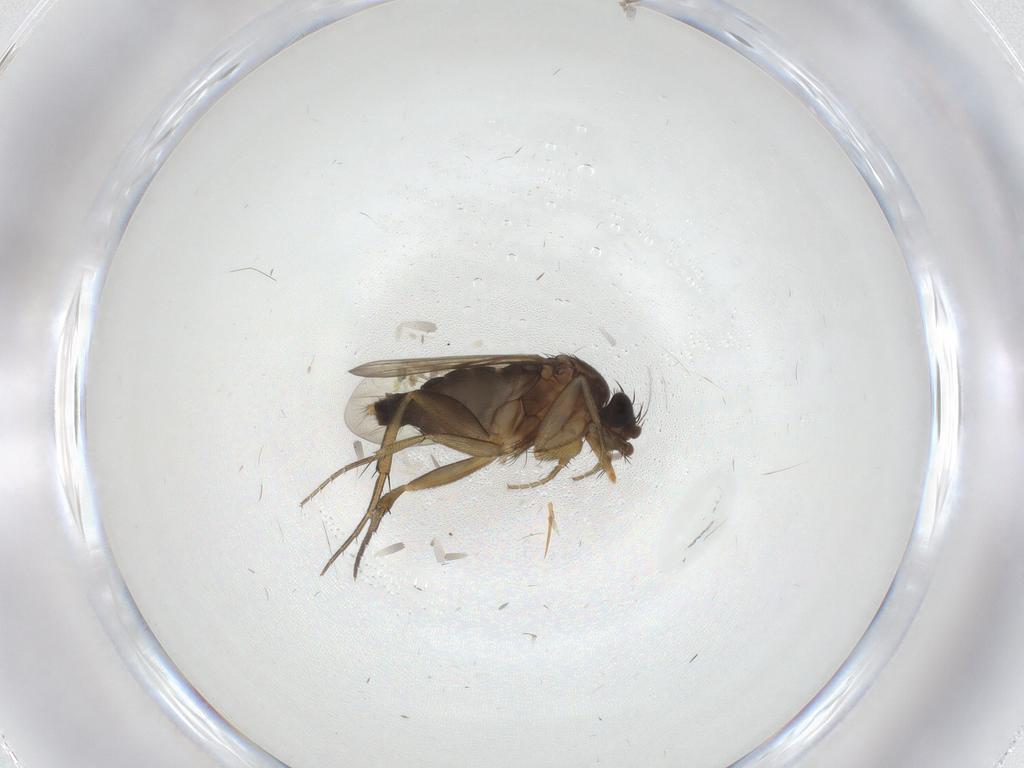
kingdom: Animalia
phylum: Arthropoda
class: Insecta
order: Diptera
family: Phoridae
